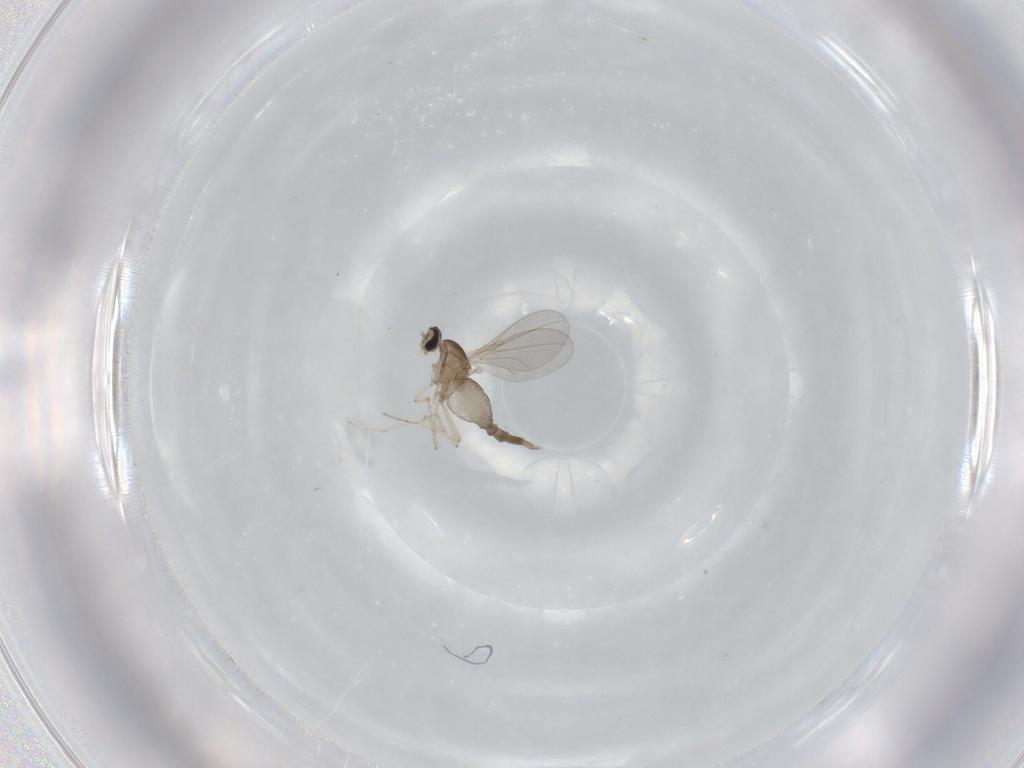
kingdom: Animalia
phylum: Arthropoda
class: Insecta
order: Diptera
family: Cecidomyiidae
